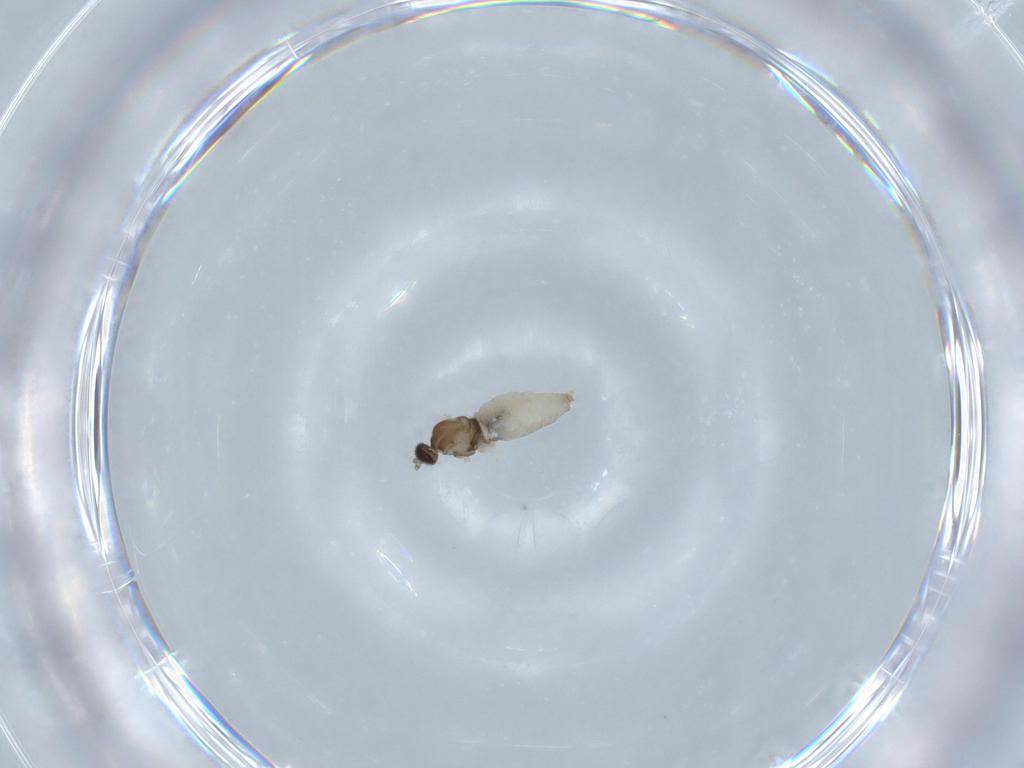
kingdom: Animalia
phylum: Arthropoda
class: Insecta
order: Diptera
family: Cecidomyiidae
